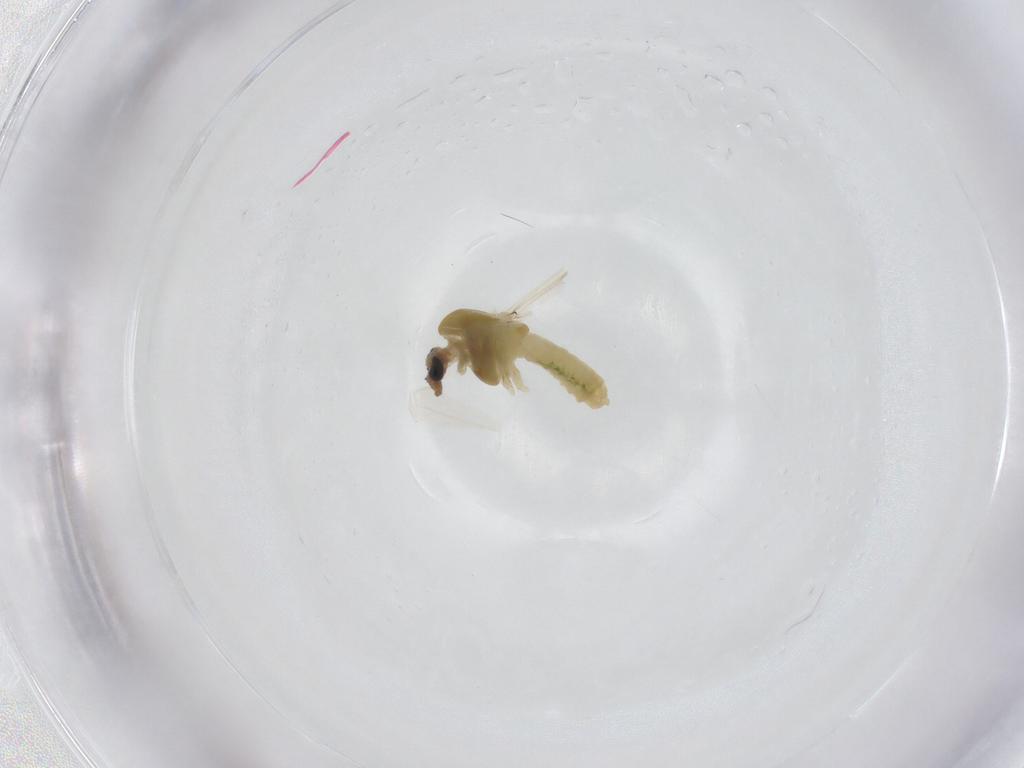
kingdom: Animalia
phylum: Arthropoda
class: Insecta
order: Diptera
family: Chironomidae
